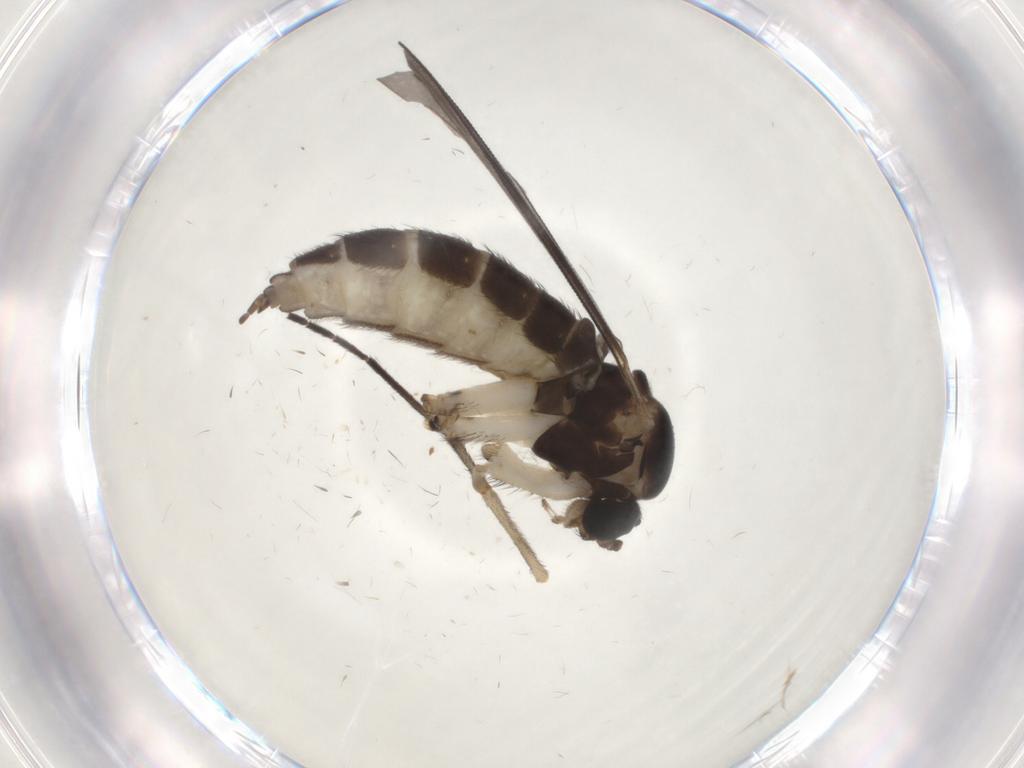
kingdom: Animalia
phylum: Arthropoda
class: Insecta
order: Diptera
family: Sciaridae
